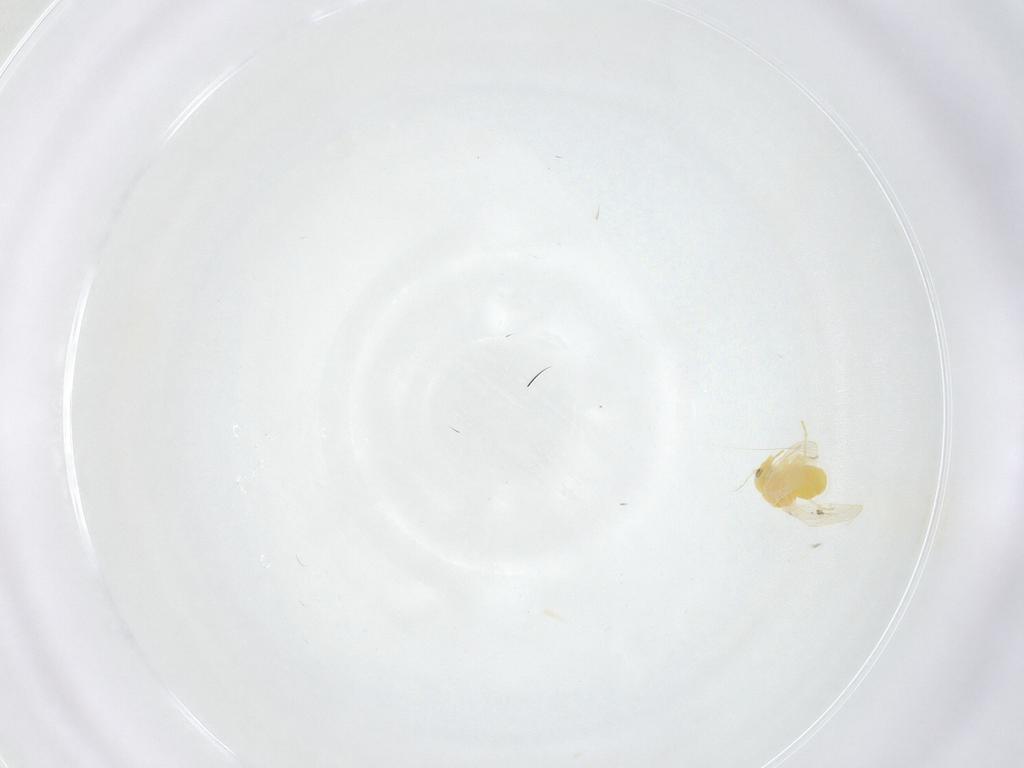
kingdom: Animalia
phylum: Arthropoda
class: Insecta
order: Hemiptera
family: Aleyrodidae
